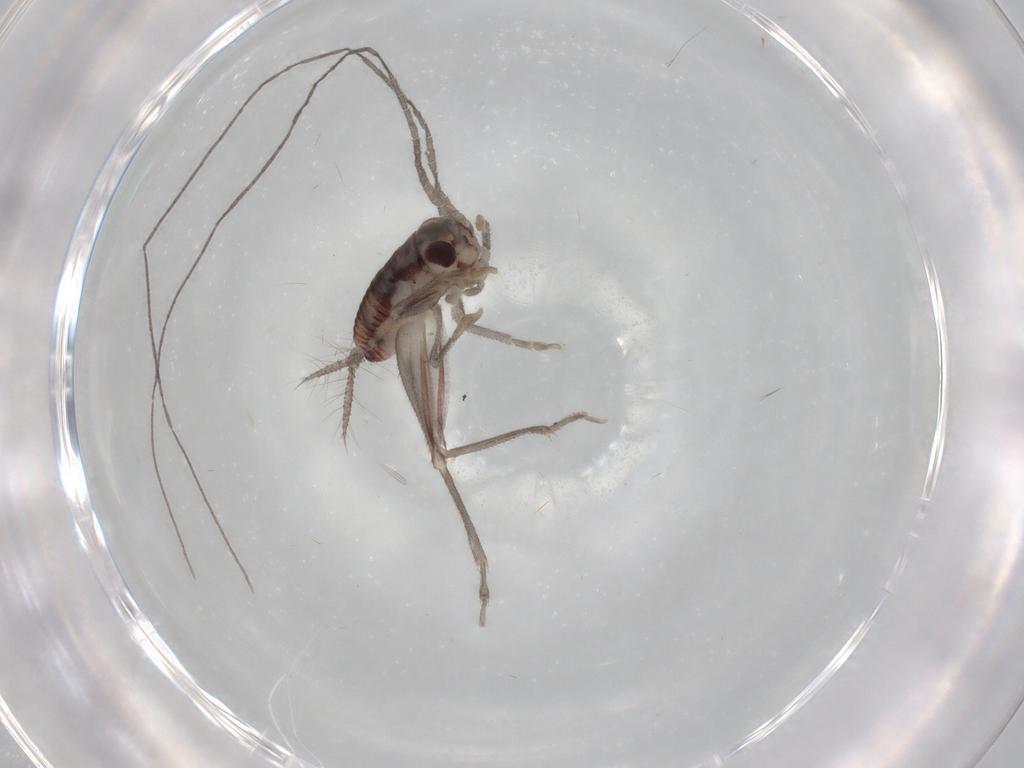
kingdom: Animalia
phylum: Arthropoda
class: Insecta
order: Orthoptera
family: Trigonidiidae
